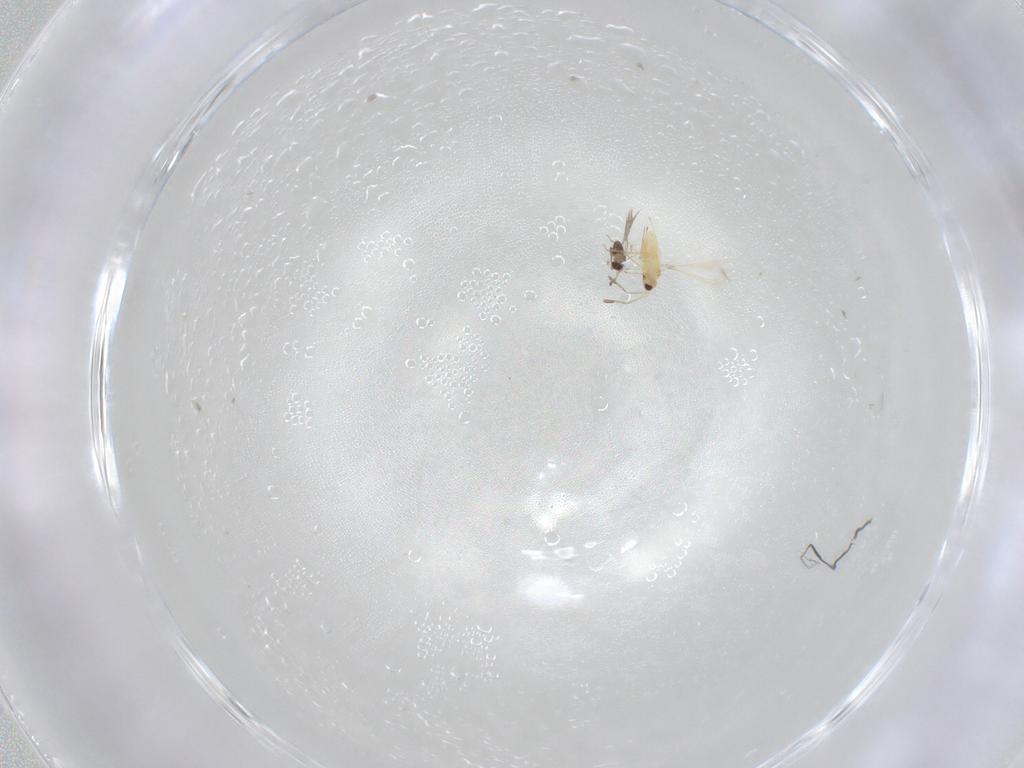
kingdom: Animalia
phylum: Arthropoda
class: Insecta
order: Hymenoptera
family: Mymaridae
